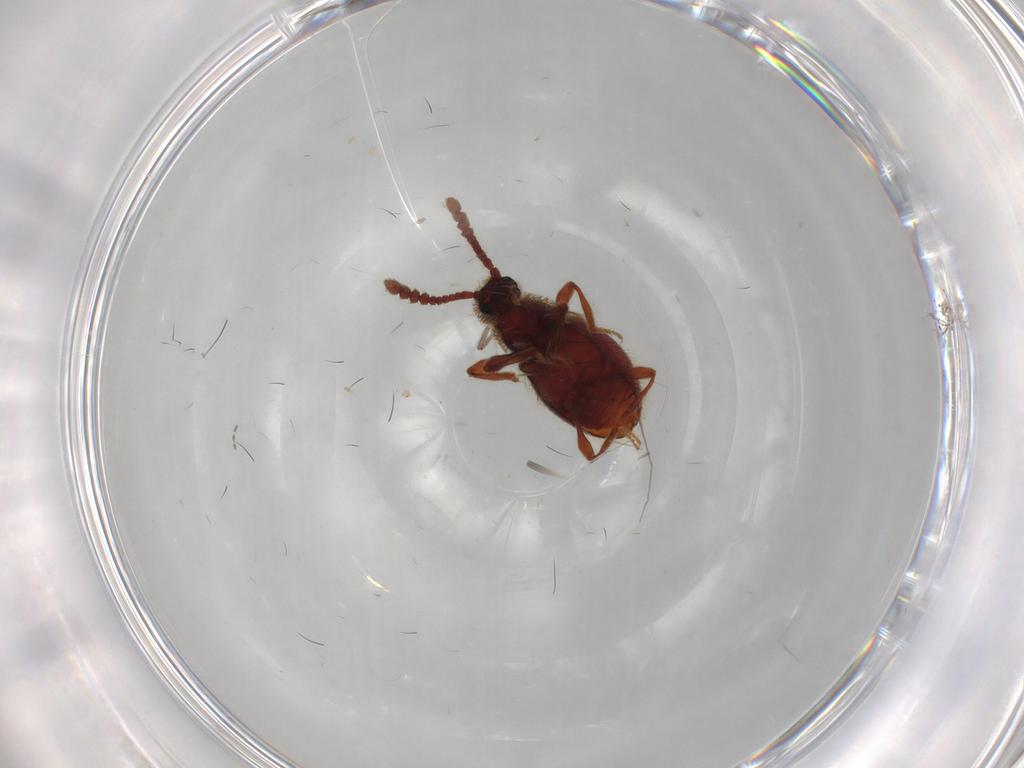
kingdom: Animalia
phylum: Arthropoda
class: Insecta
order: Coleoptera
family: Staphylinidae
